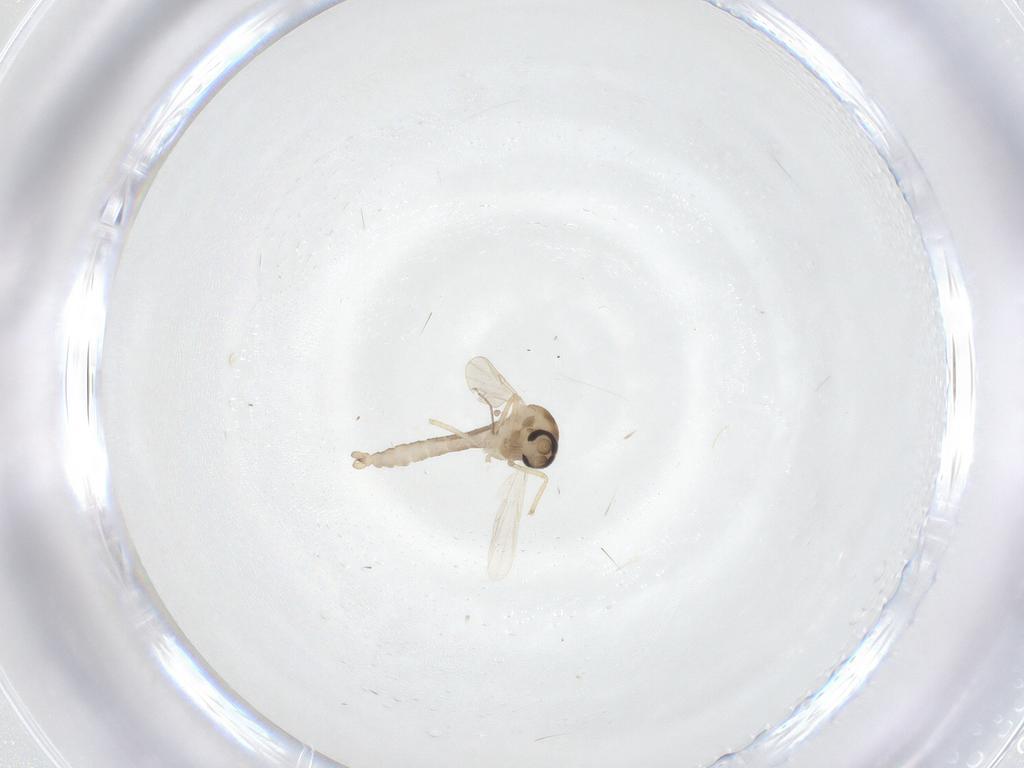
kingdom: Animalia
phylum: Arthropoda
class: Insecta
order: Diptera
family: Ceratopogonidae
